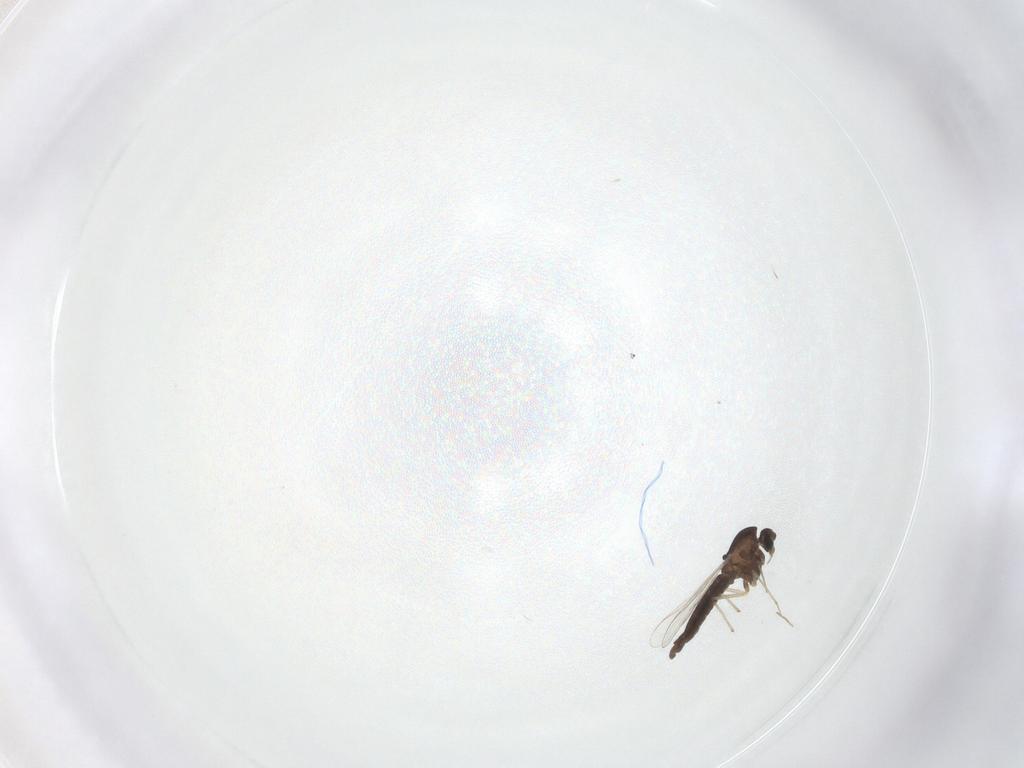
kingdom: Animalia
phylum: Arthropoda
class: Insecta
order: Diptera
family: Chironomidae
